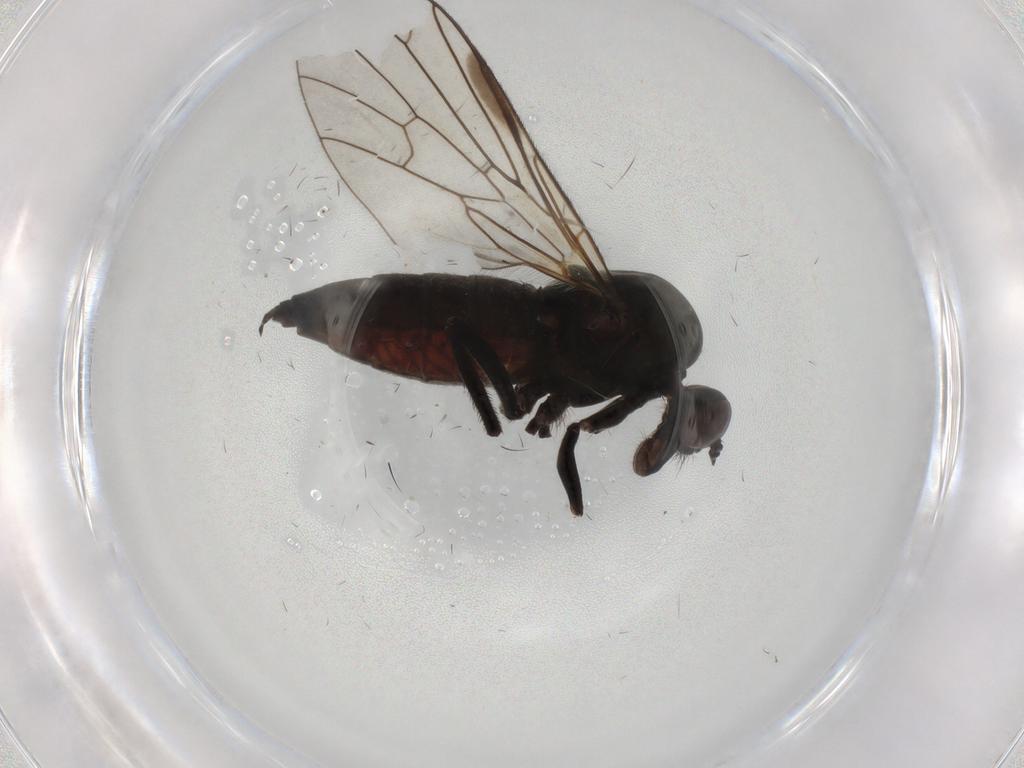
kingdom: Animalia
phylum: Arthropoda
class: Insecta
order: Diptera
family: Empididae
